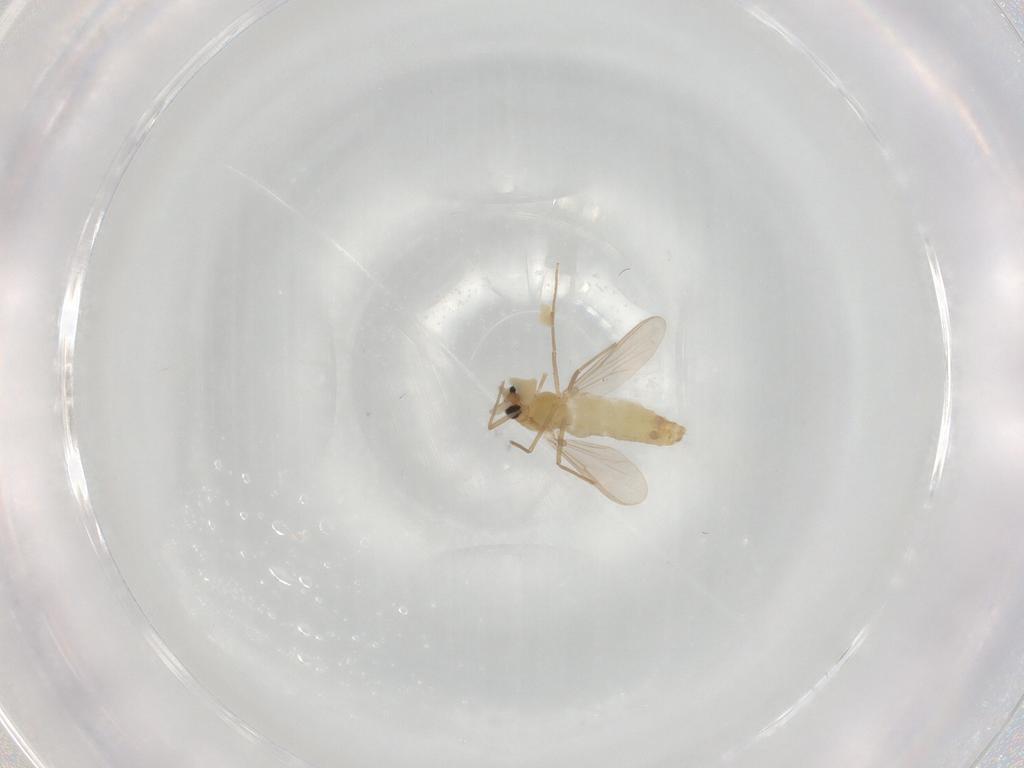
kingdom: Animalia
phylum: Arthropoda
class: Insecta
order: Diptera
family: Chironomidae
